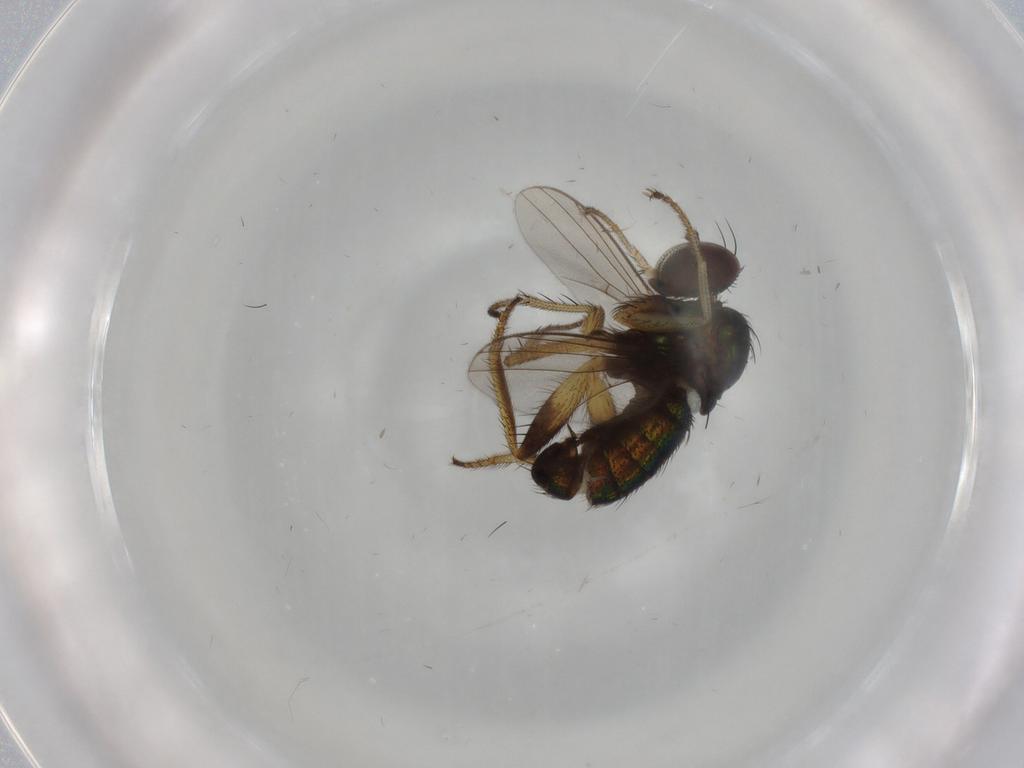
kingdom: Animalia
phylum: Arthropoda
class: Insecta
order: Diptera
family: Dolichopodidae
